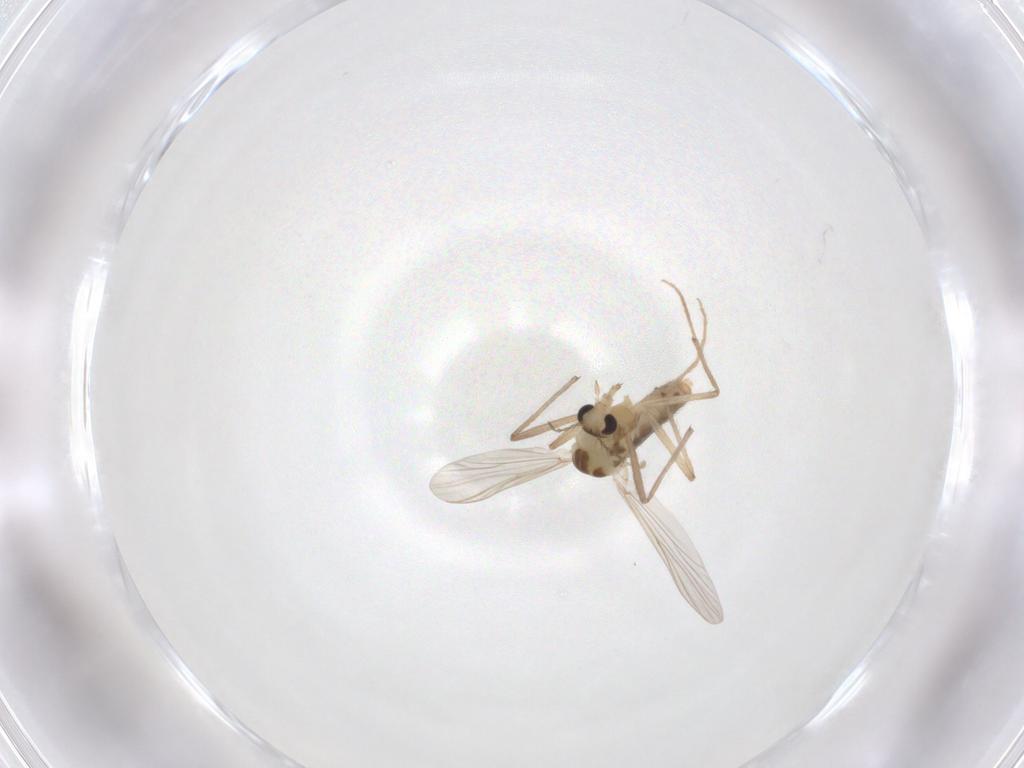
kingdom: Animalia
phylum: Arthropoda
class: Insecta
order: Diptera
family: Chironomidae
